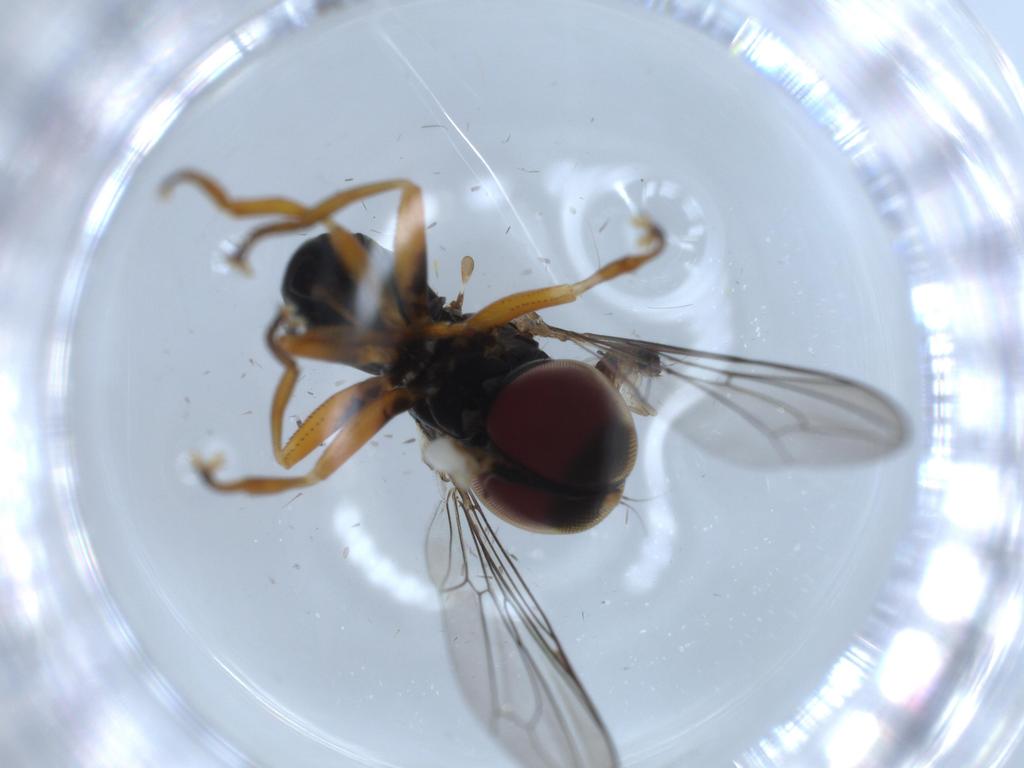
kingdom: Animalia
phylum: Arthropoda
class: Insecta
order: Diptera
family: Pipunculidae
